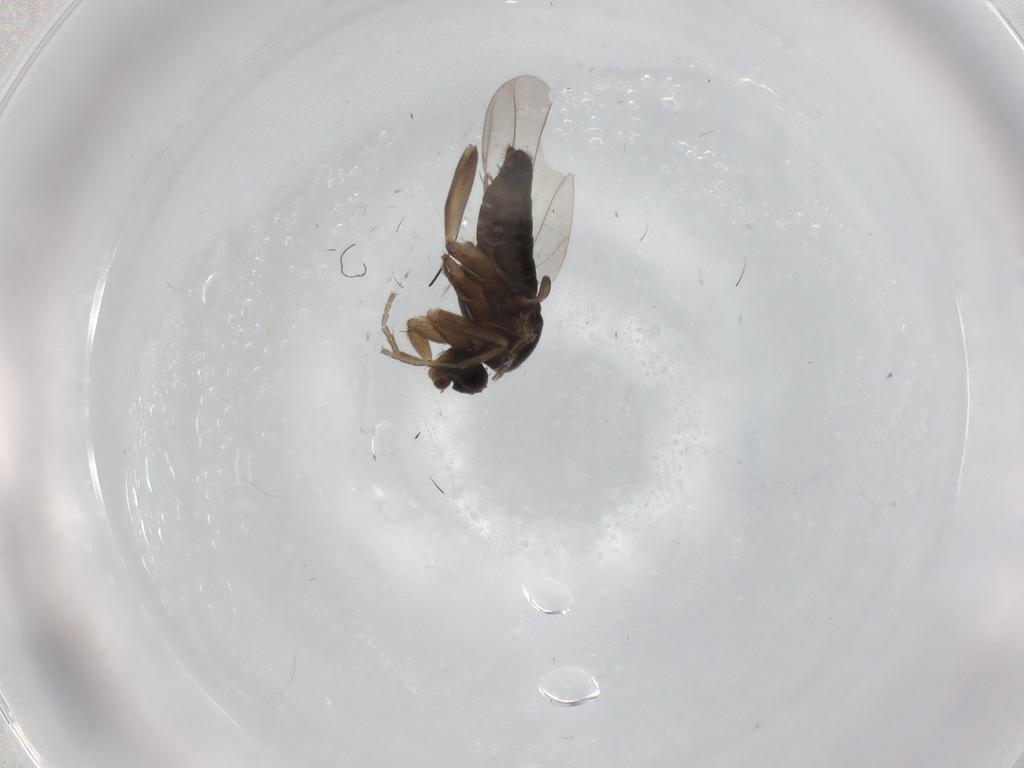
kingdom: Animalia
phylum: Arthropoda
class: Insecta
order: Diptera
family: Phoridae
